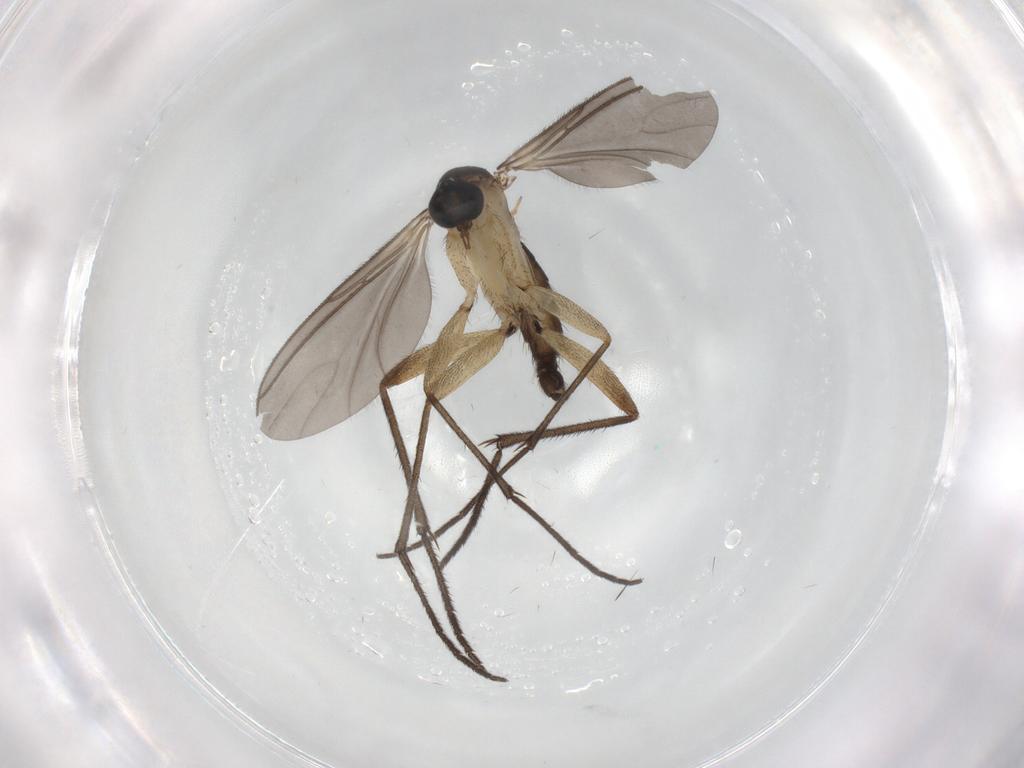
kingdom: Animalia
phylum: Arthropoda
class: Insecta
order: Diptera
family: Sciaridae
